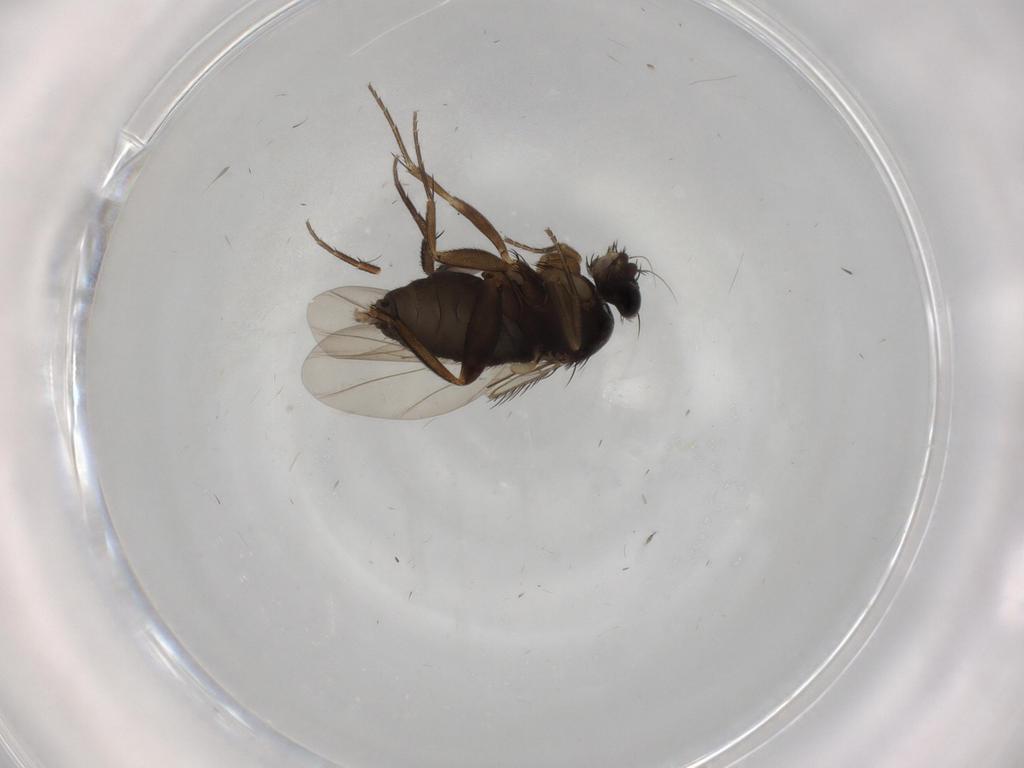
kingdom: Animalia
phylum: Arthropoda
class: Insecta
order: Diptera
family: Phoridae
